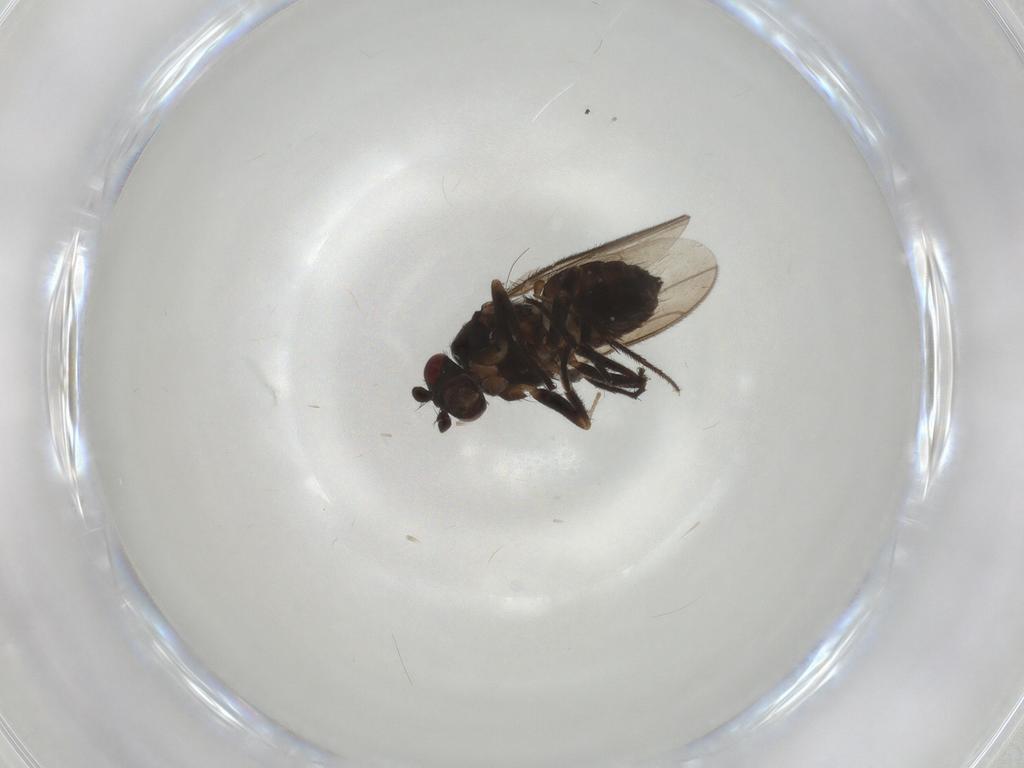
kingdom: Animalia
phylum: Arthropoda
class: Insecta
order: Diptera
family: Sphaeroceridae
